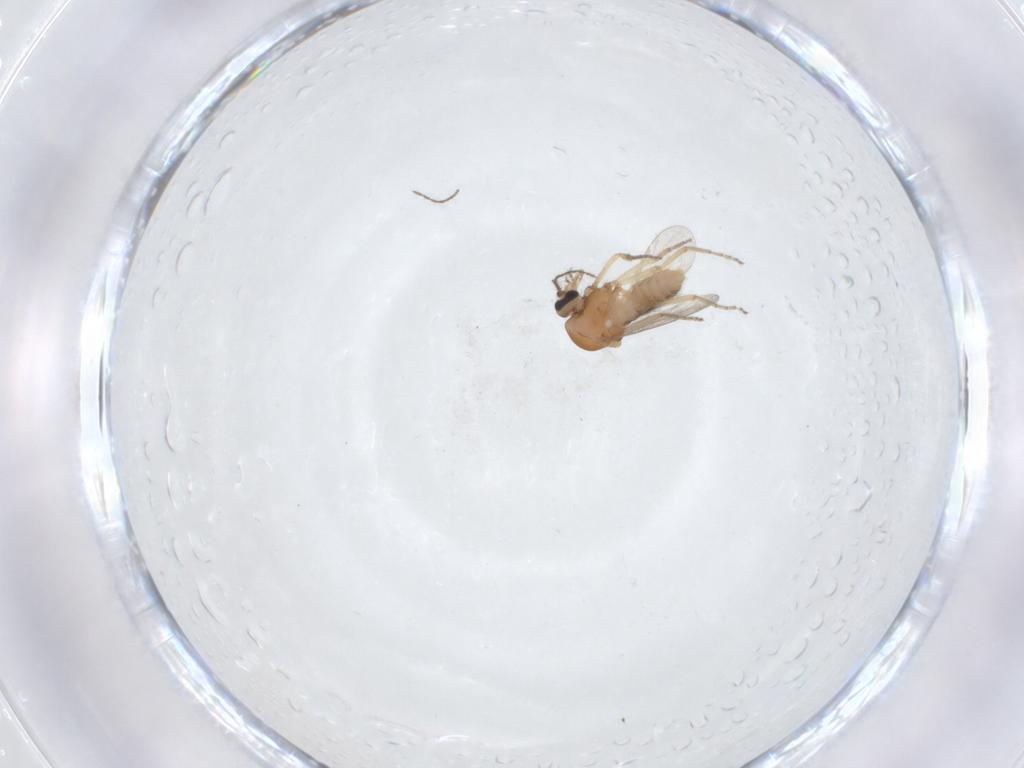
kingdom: Animalia
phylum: Arthropoda
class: Insecta
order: Diptera
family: Ceratopogonidae
